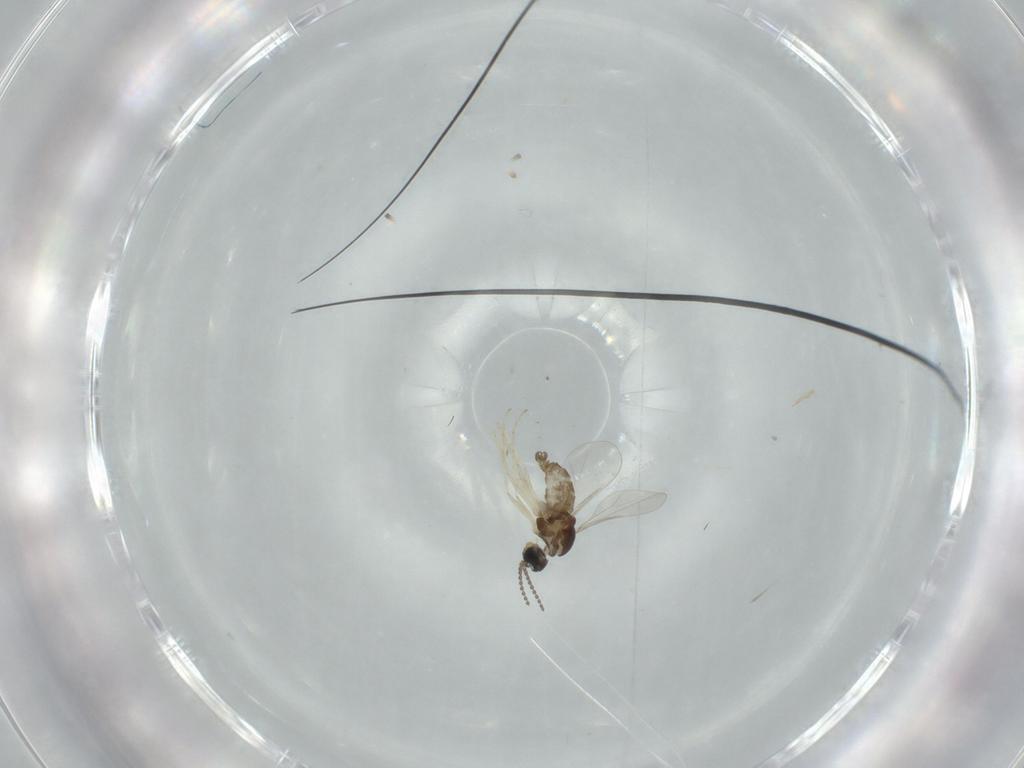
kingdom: Animalia
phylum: Arthropoda
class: Insecta
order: Diptera
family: Cecidomyiidae
